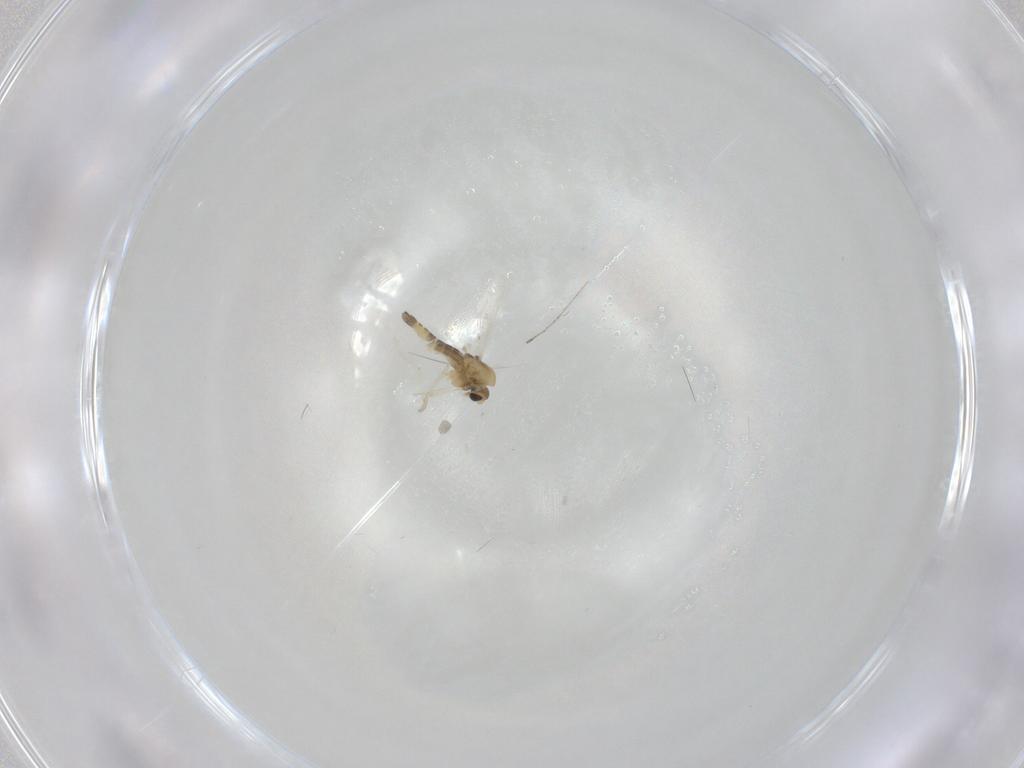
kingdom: Animalia
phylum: Arthropoda
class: Insecta
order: Diptera
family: Chironomidae
